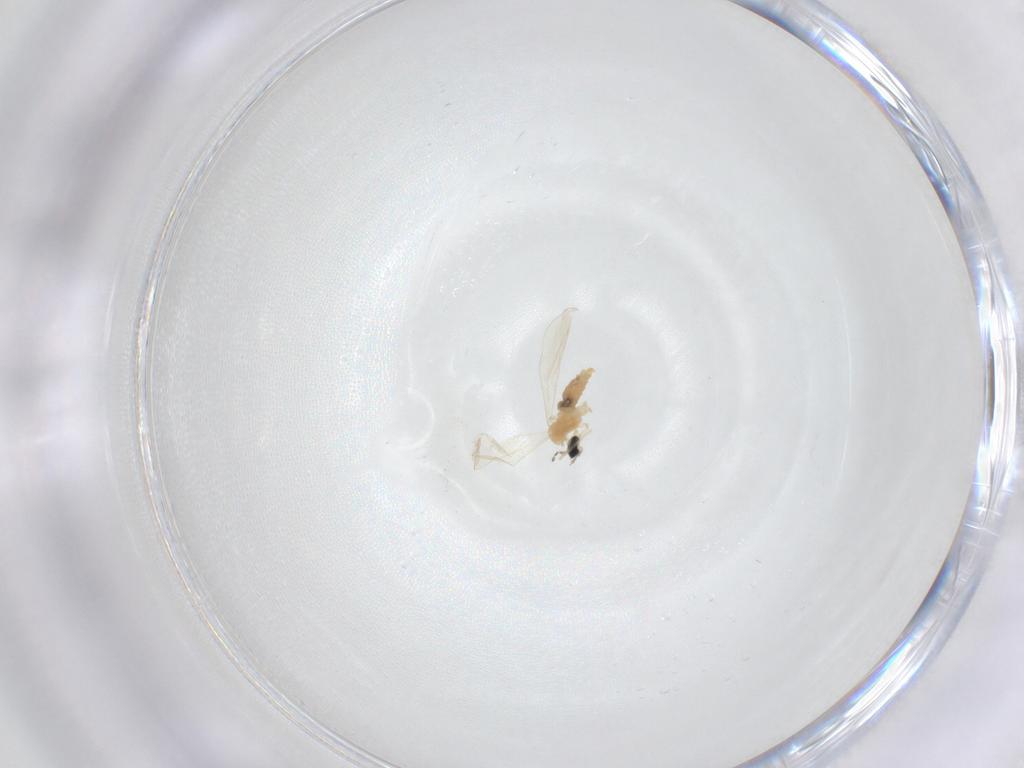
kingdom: Animalia
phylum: Arthropoda
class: Insecta
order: Diptera
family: Cecidomyiidae
